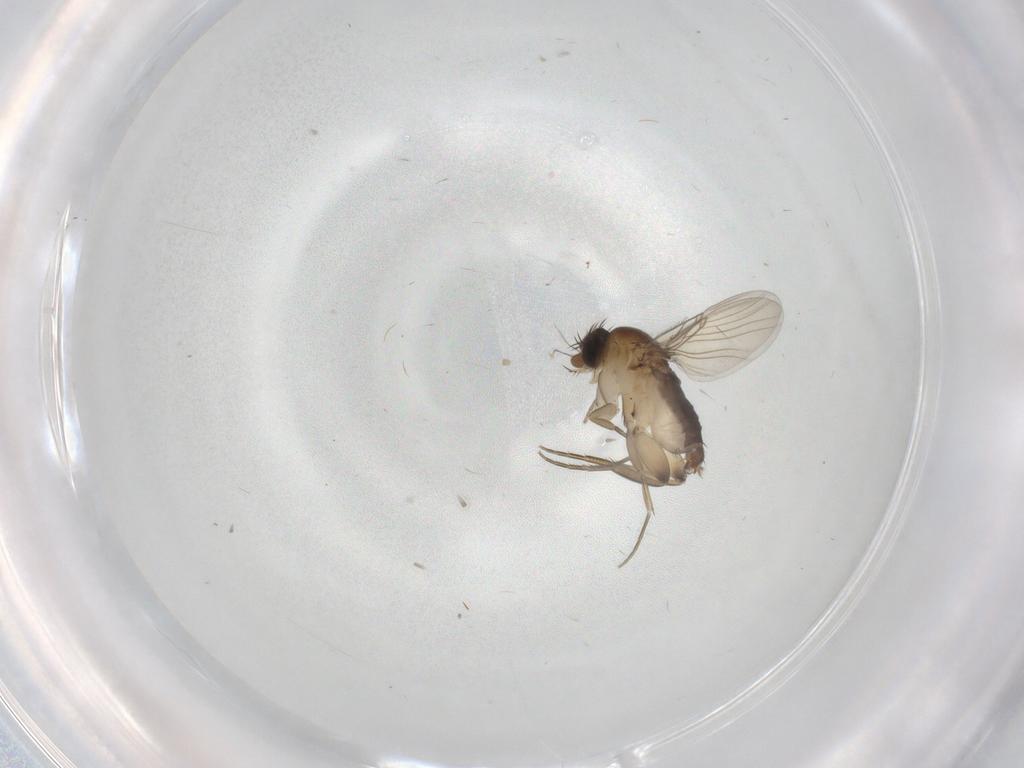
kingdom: Animalia
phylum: Arthropoda
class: Insecta
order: Diptera
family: Phoridae
